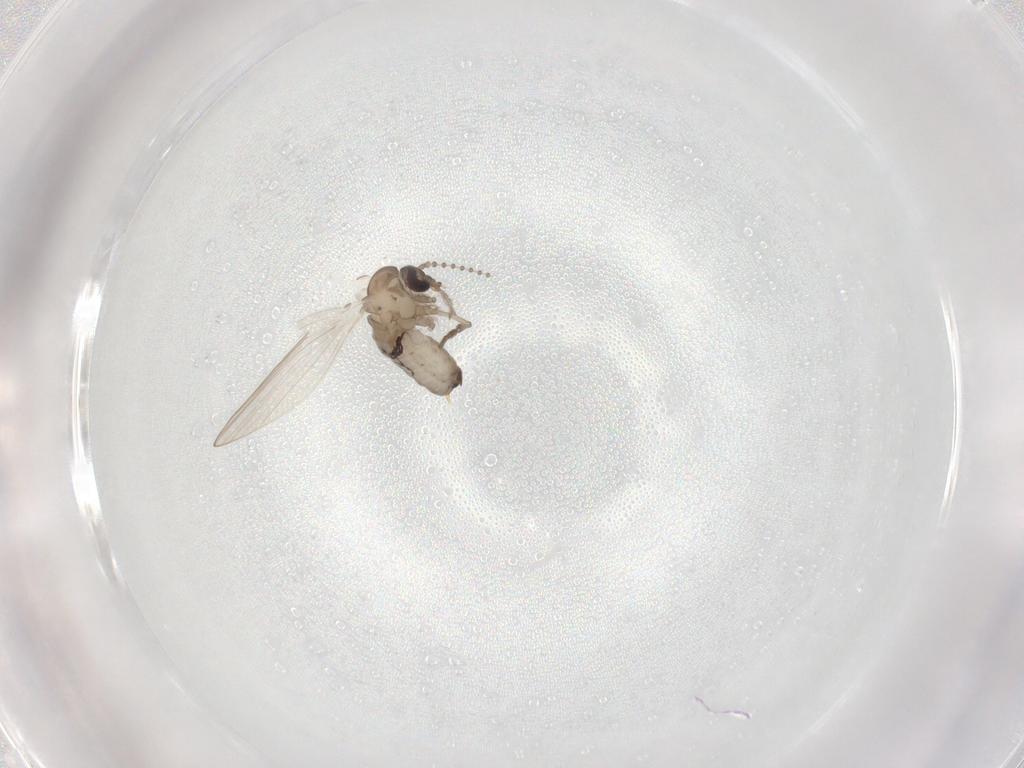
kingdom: Animalia
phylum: Arthropoda
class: Insecta
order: Diptera
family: Psychodidae
